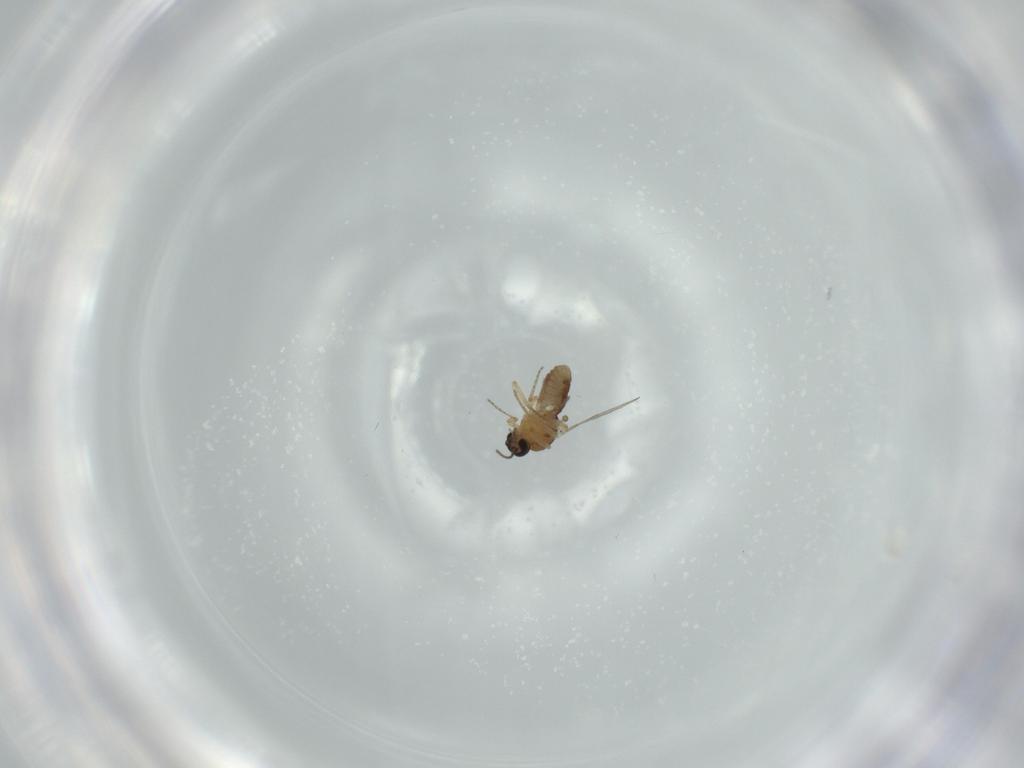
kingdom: Animalia
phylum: Arthropoda
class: Insecta
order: Diptera
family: Ceratopogonidae
